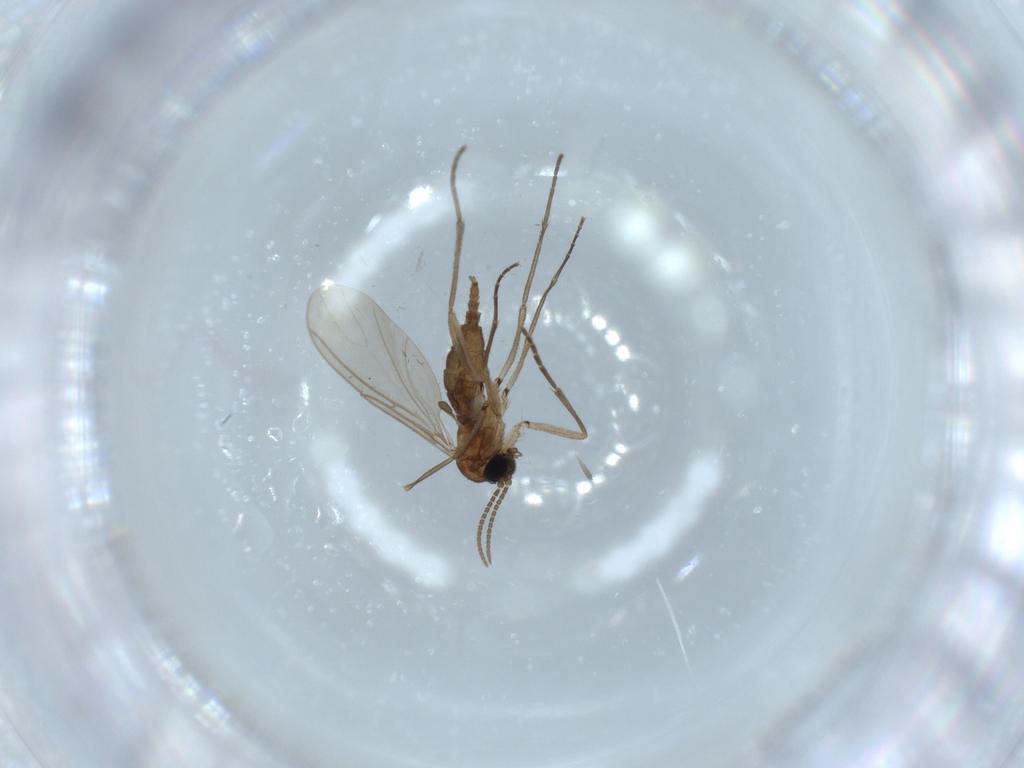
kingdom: Animalia
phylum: Arthropoda
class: Insecta
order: Diptera
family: Sciaridae
